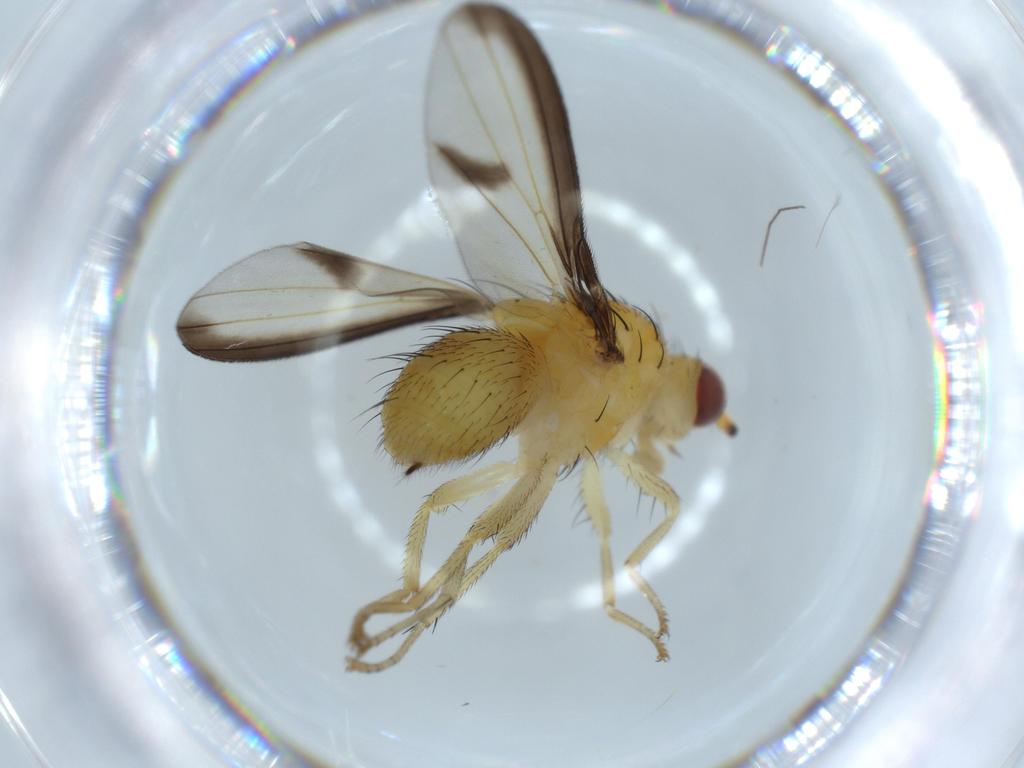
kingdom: Animalia
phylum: Arthropoda
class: Insecta
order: Diptera
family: Lauxaniidae
